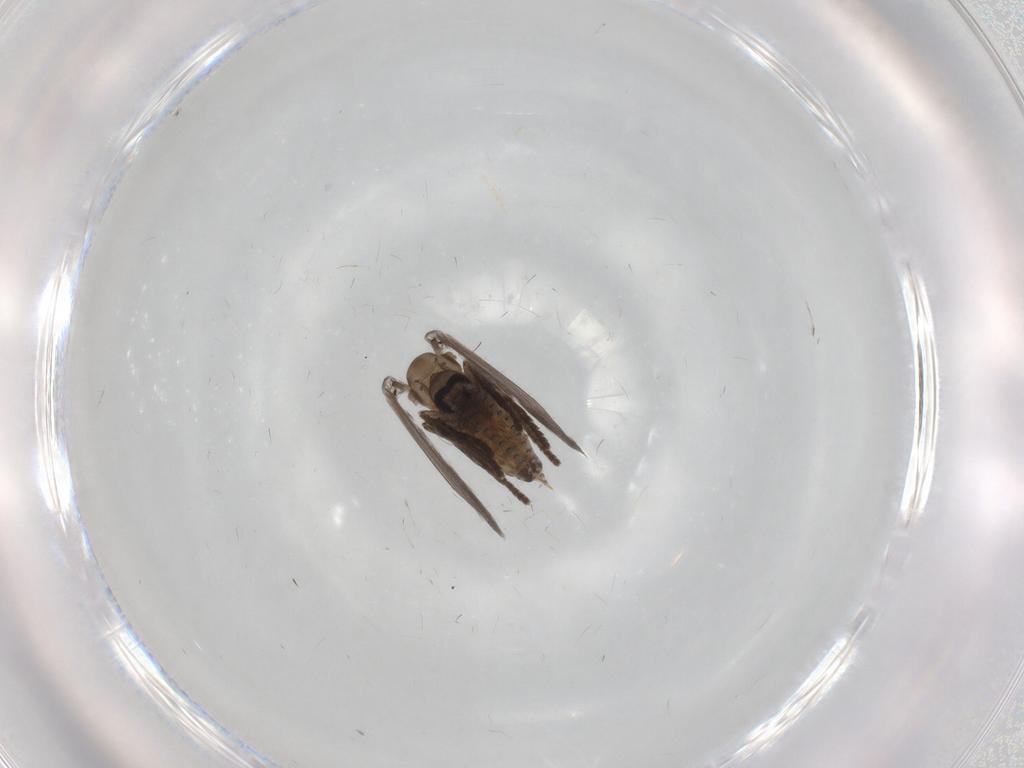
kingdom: Animalia
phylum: Arthropoda
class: Insecta
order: Diptera
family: Psychodidae
